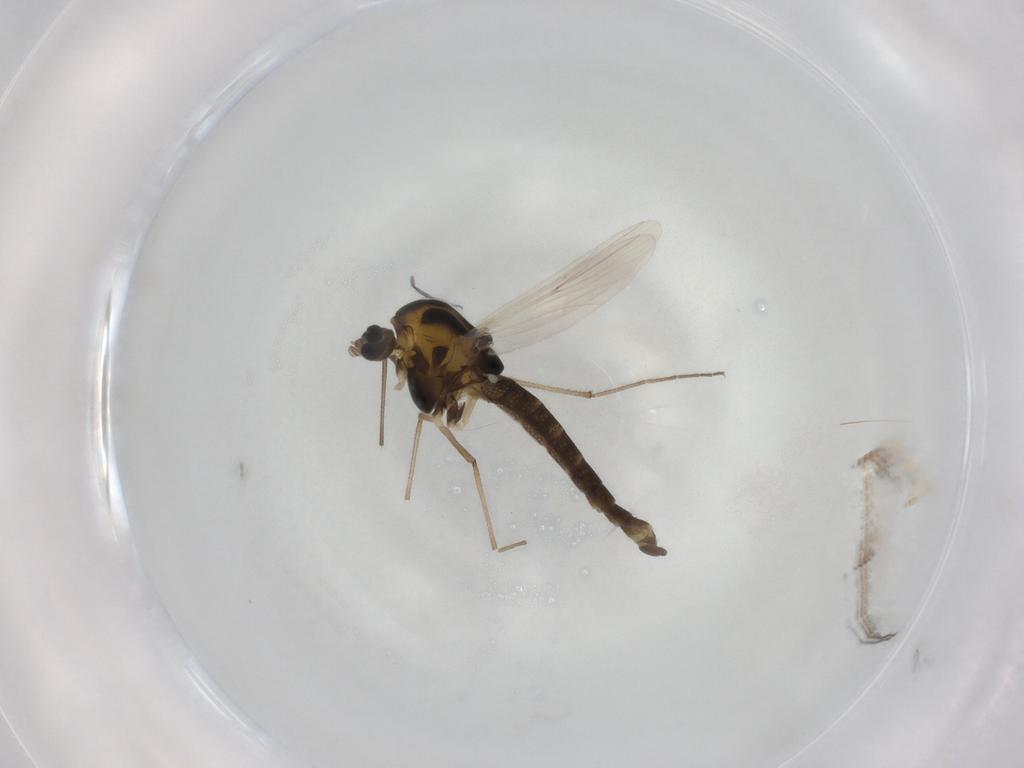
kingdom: Animalia
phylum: Arthropoda
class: Insecta
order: Diptera
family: Chironomidae
